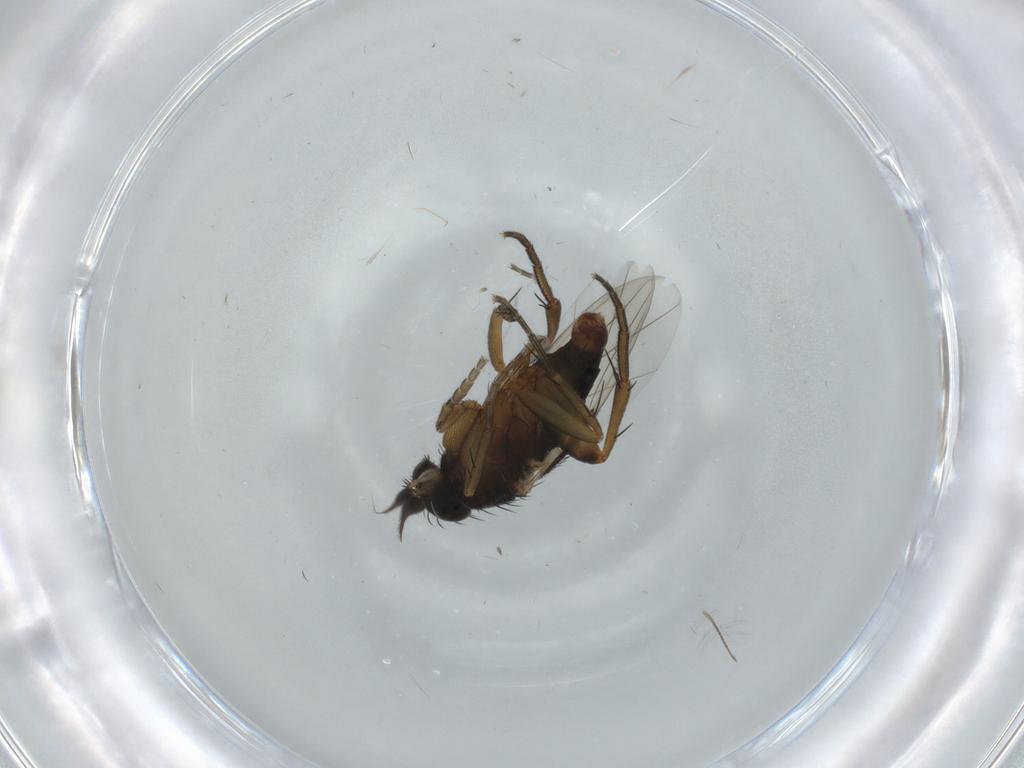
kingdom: Animalia
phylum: Arthropoda
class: Insecta
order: Diptera
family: Phoridae
